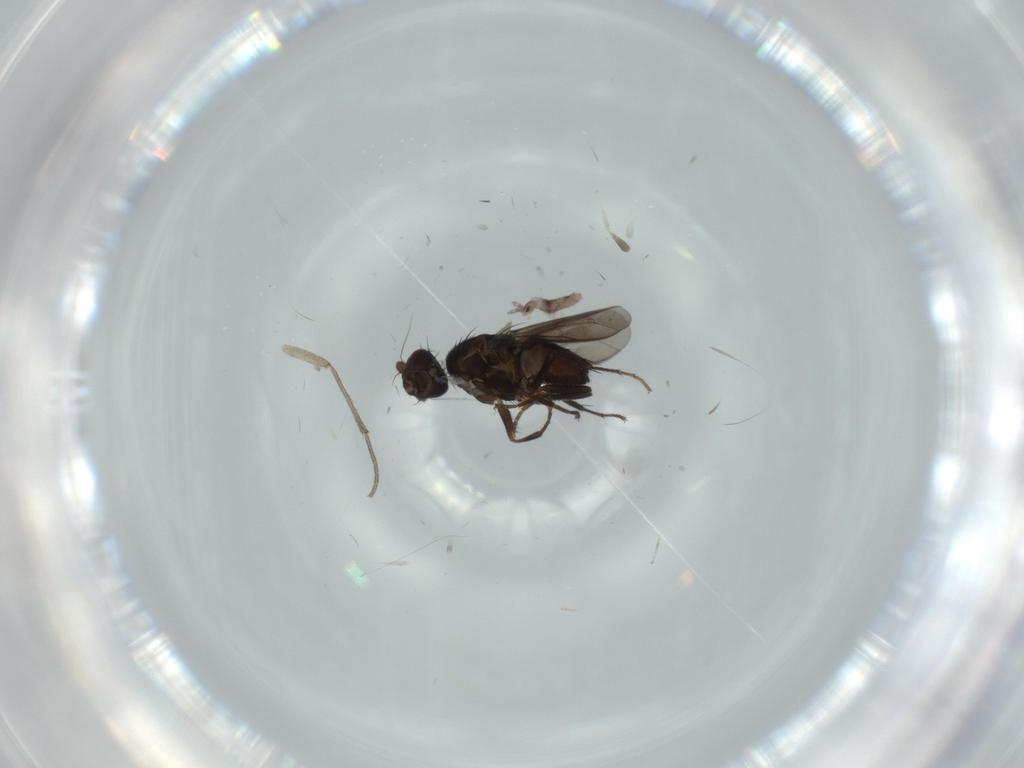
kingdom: Animalia
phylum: Arthropoda
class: Insecta
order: Diptera
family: Sphaeroceridae
